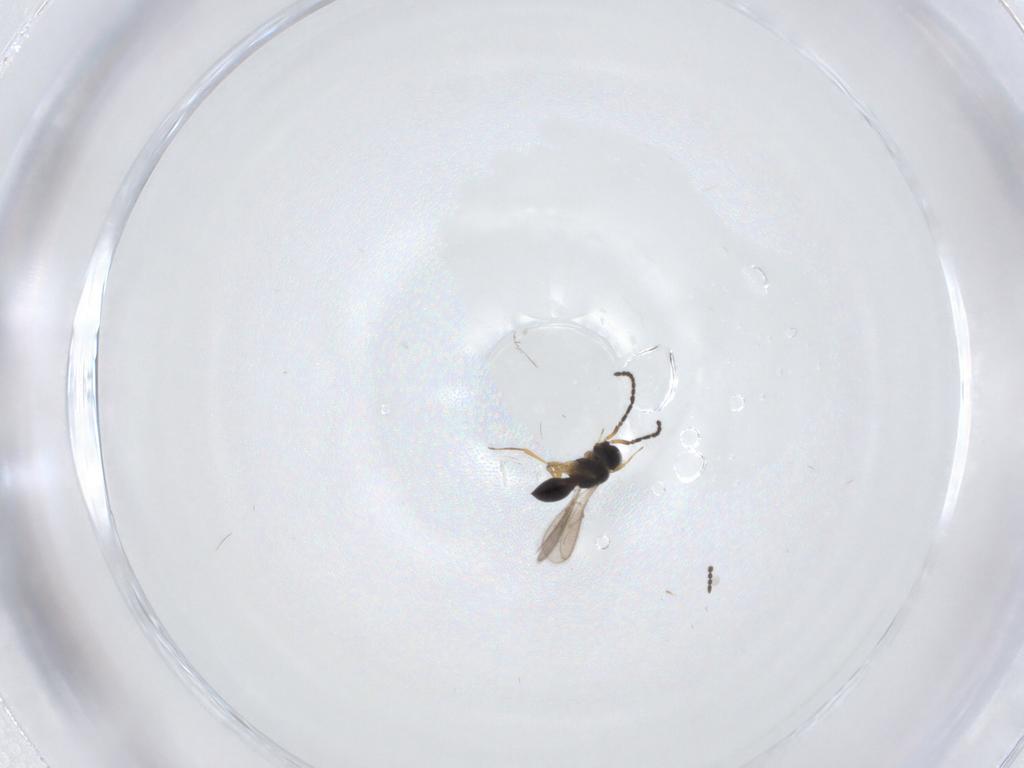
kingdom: Animalia
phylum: Arthropoda
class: Insecta
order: Hymenoptera
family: Scelionidae
